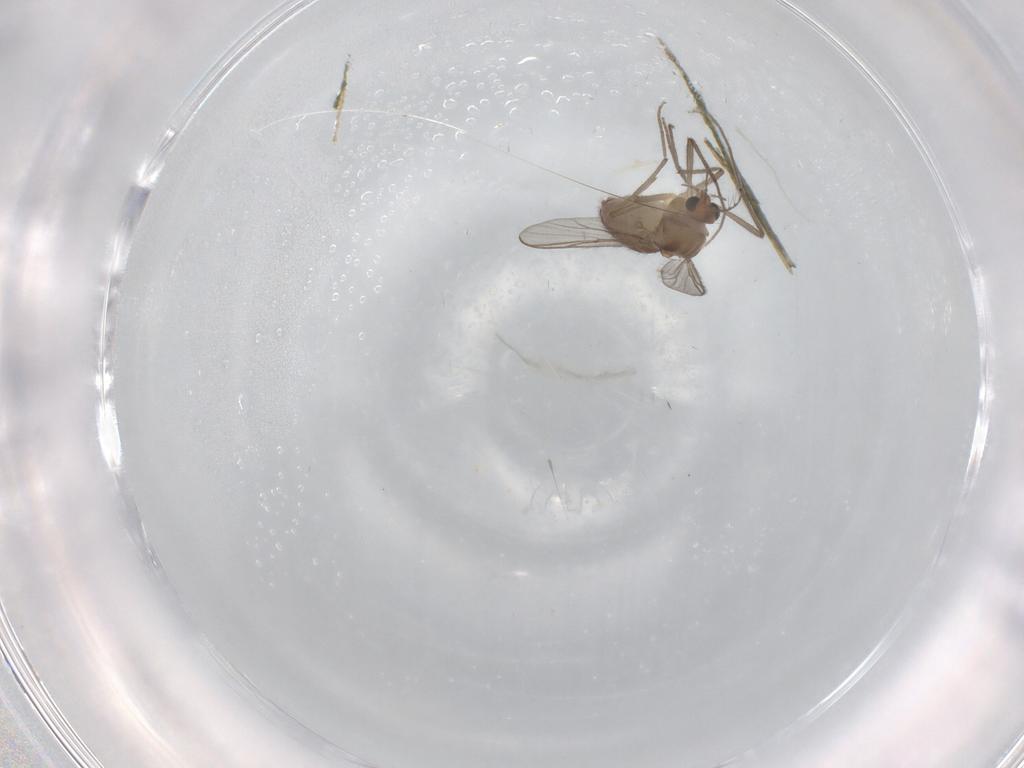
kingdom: Animalia
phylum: Arthropoda
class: Insecta
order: Diptera
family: Chironomidae
